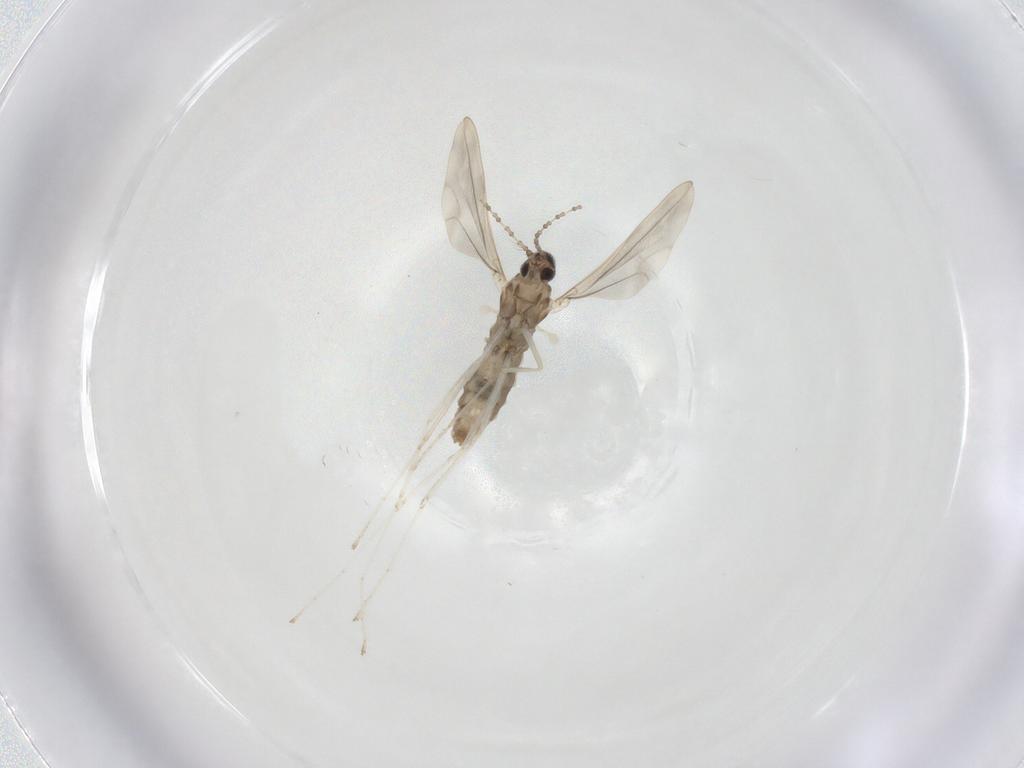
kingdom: Animalia
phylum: Arthropoda
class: Insecta
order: Diptera
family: Cecidomyiidae
